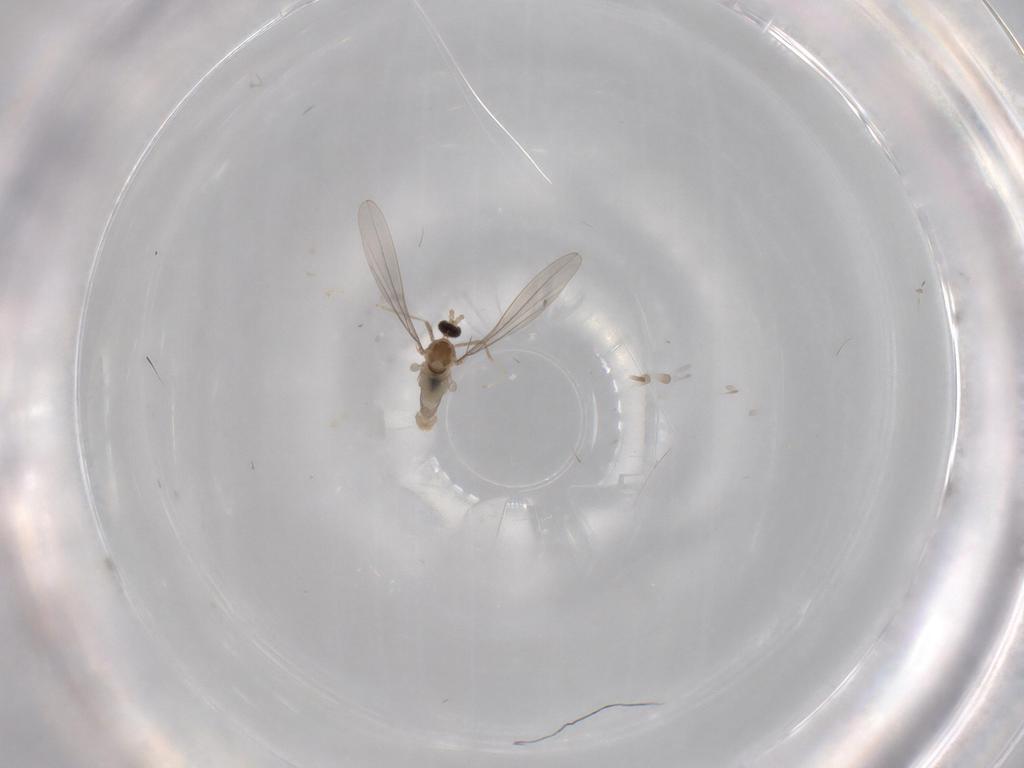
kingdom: Animalia
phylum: Arthropoda
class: Insecta
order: Diptera
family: Cecidomyiidae
